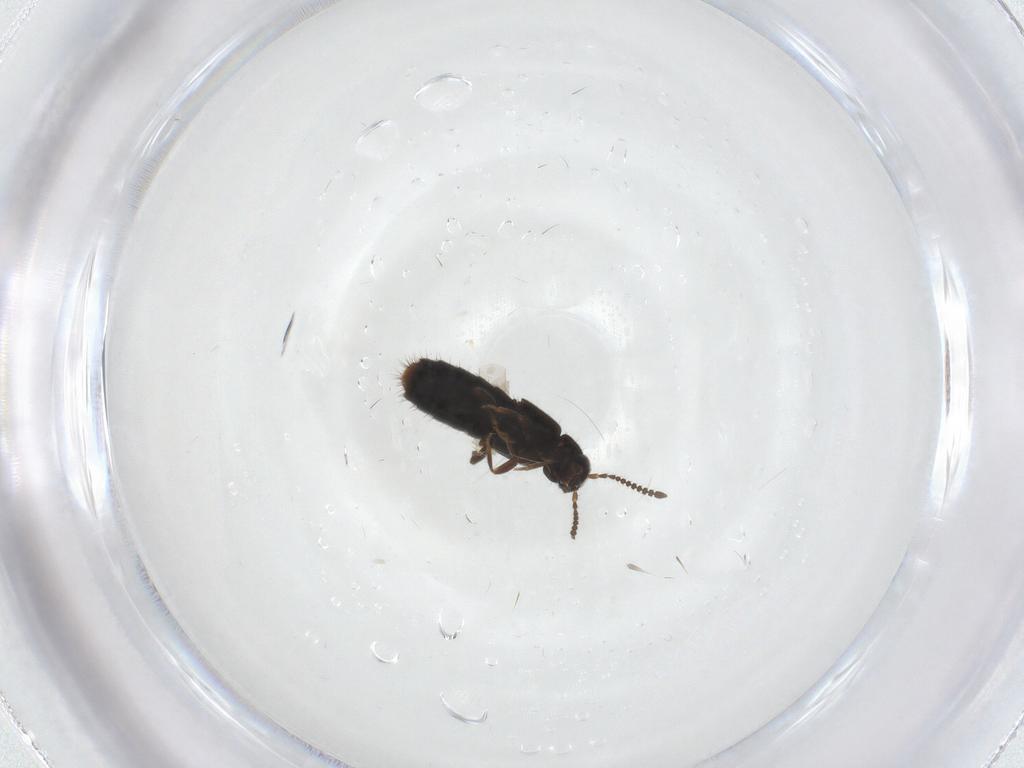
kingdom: Animalia
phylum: Arthropoda
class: Insecta
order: Coleoptera
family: Staphylinidae
